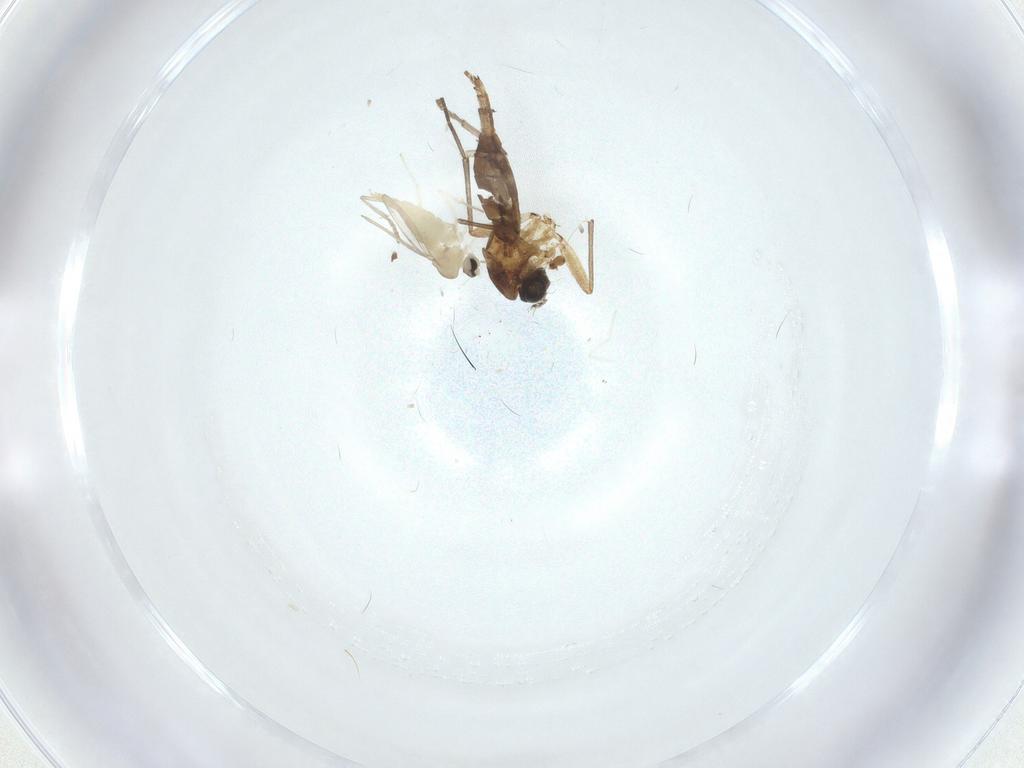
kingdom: Animalia
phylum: Arthropoda
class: Insecta
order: Diptera
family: Cecidomyiidae
